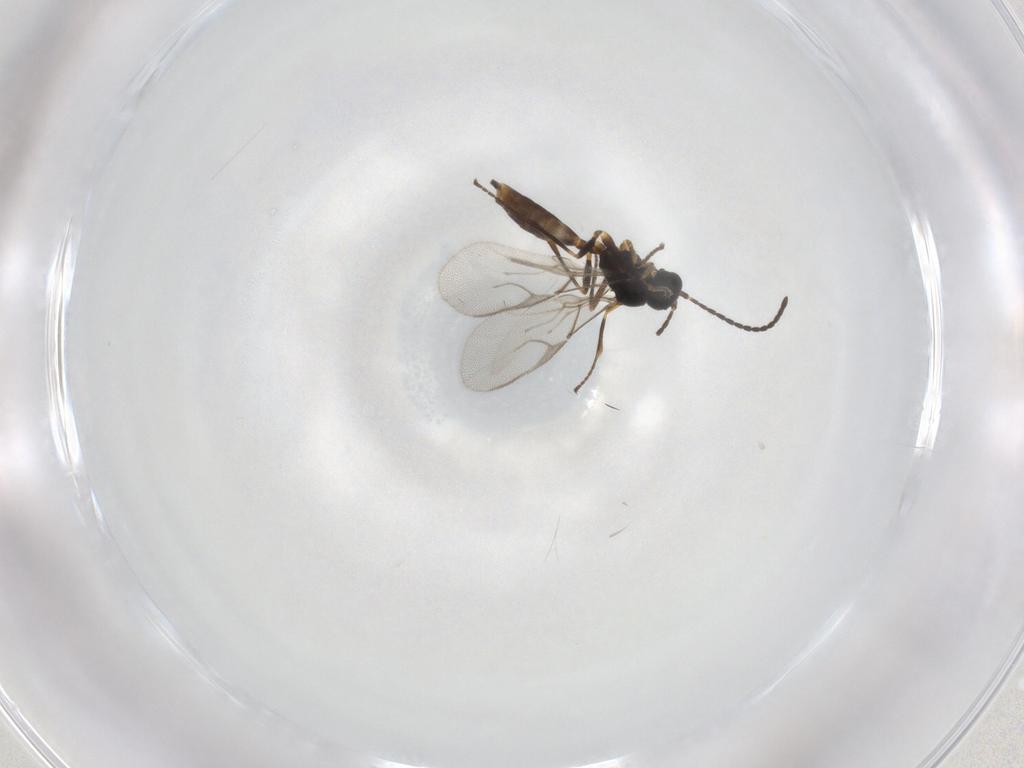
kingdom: Animalia
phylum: Arthropoda
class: Insecta
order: Hymenoptera
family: Braconidae
